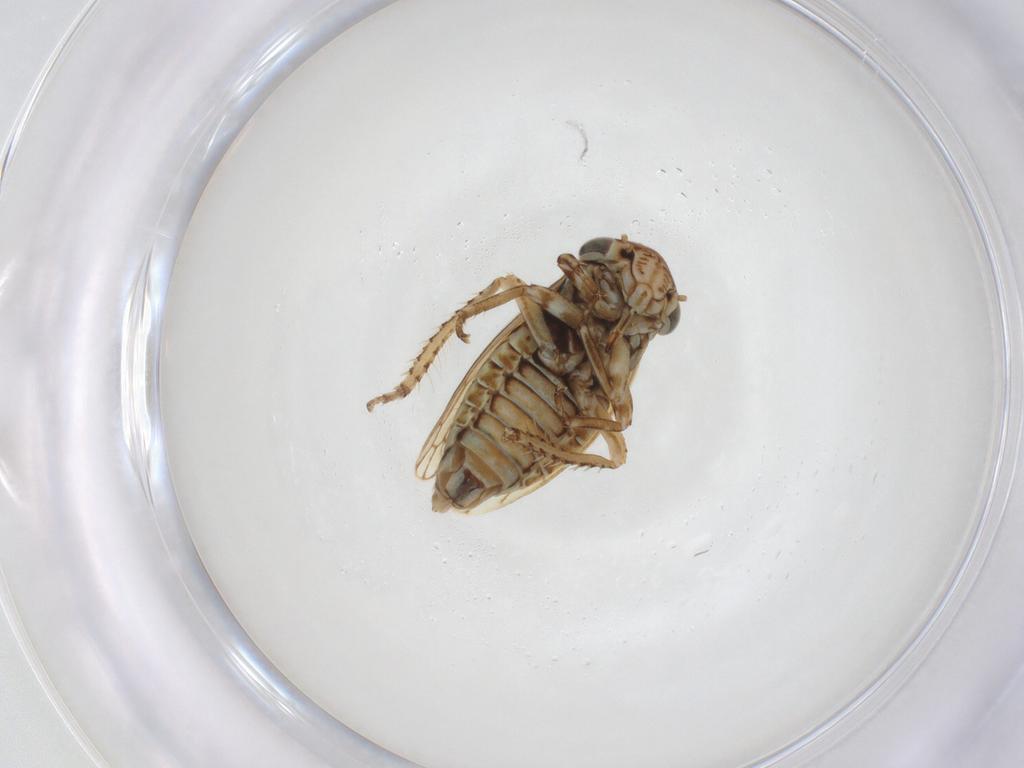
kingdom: Animalia
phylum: Arthropoda
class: Insecta
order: Hemiptera
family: Cicadellidae
